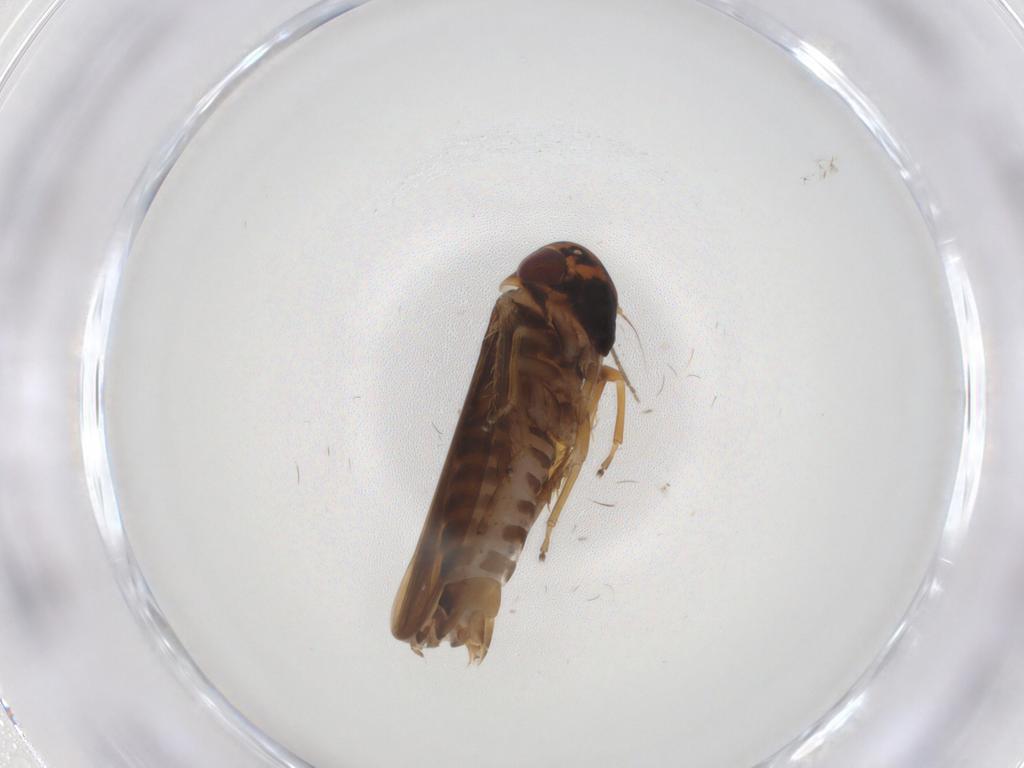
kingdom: Animalia
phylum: Arthropoda
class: Insecta
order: Hemiptera
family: Cicadellidae
